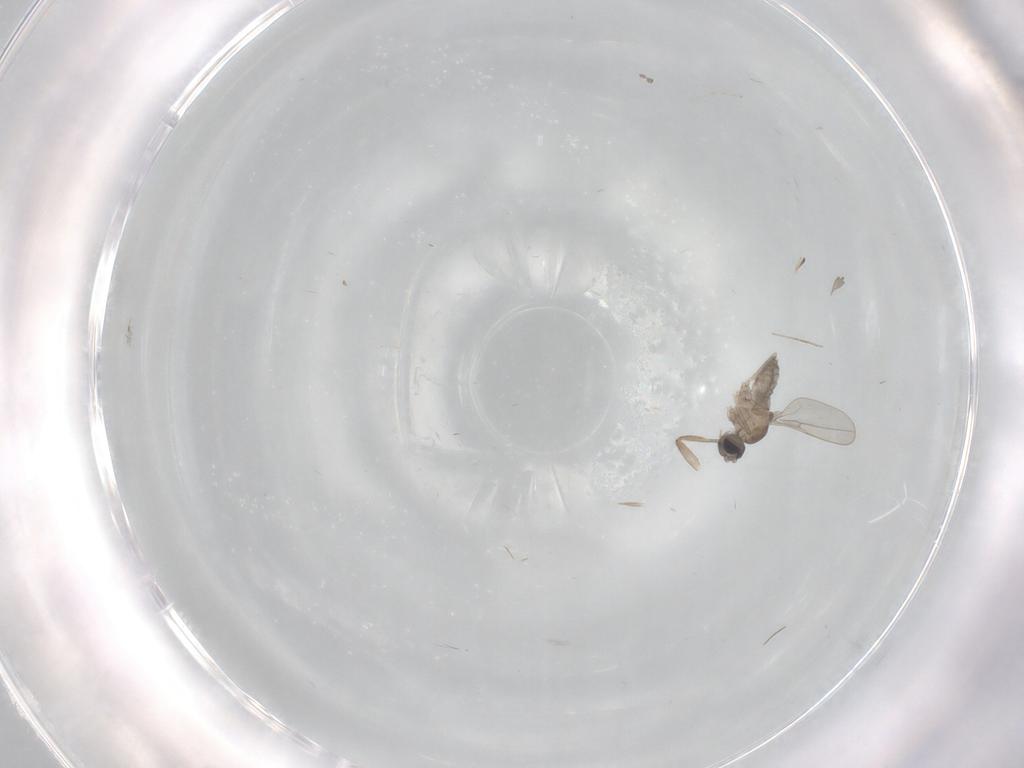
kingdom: Animalia
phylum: Arthropoda
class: Insecta
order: Diptera
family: Phoridae
